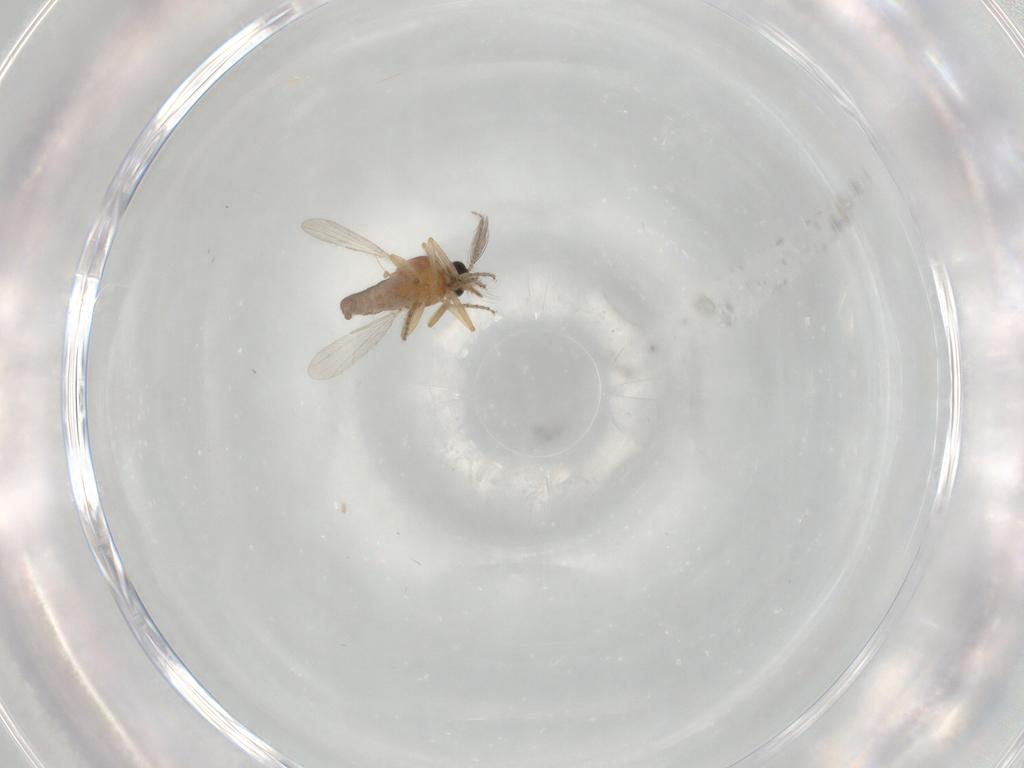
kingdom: Animalia
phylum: Arthropoda
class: Insecta
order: Diptera
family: Ceratopogonidae
